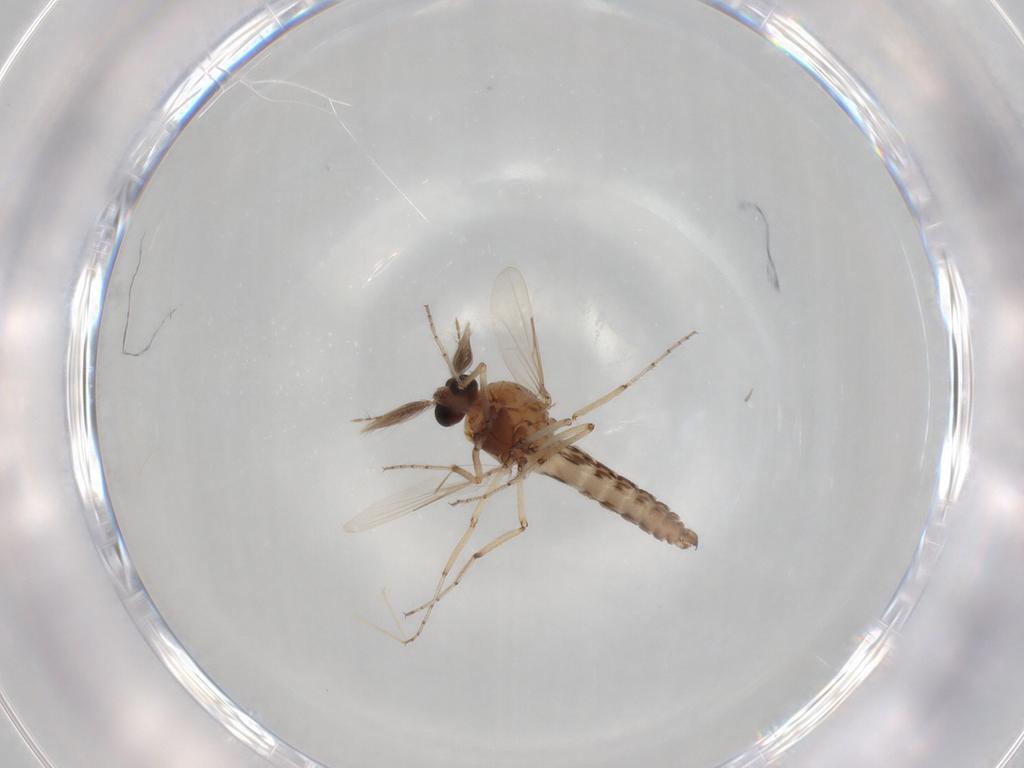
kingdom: Animalia
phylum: Arthropoda
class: Insecta
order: Diptera
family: Ceratopogonidae
